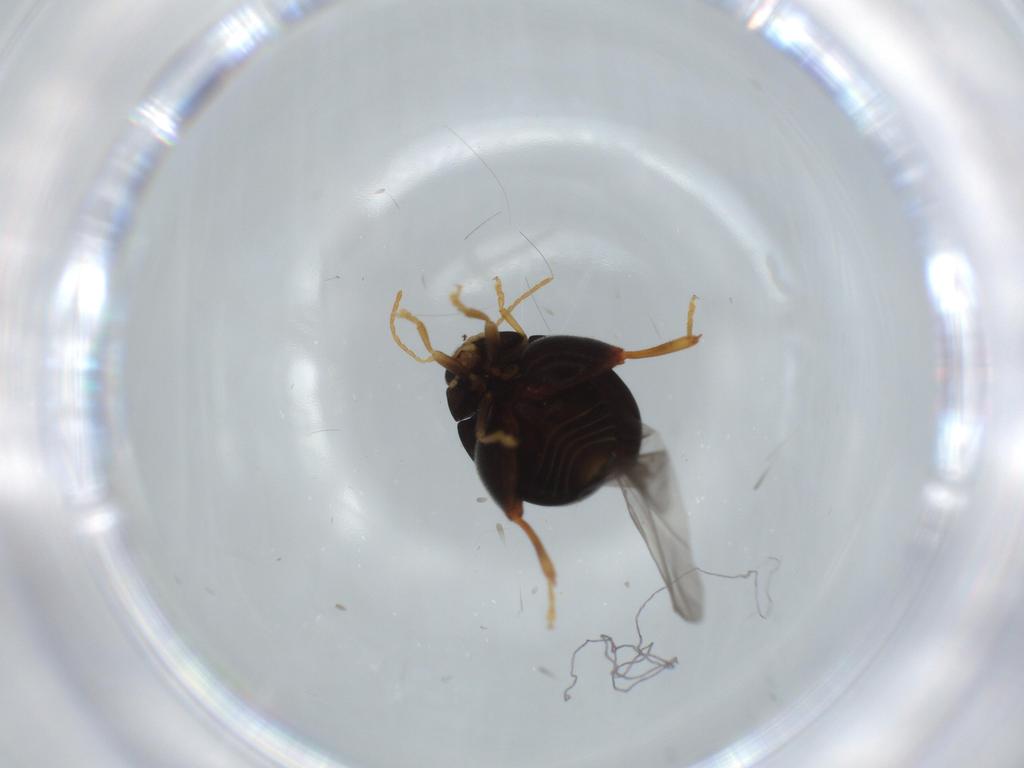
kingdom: Animalia
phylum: Arthropoda
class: Insecta
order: Coleoptera
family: Chrysomelidae
